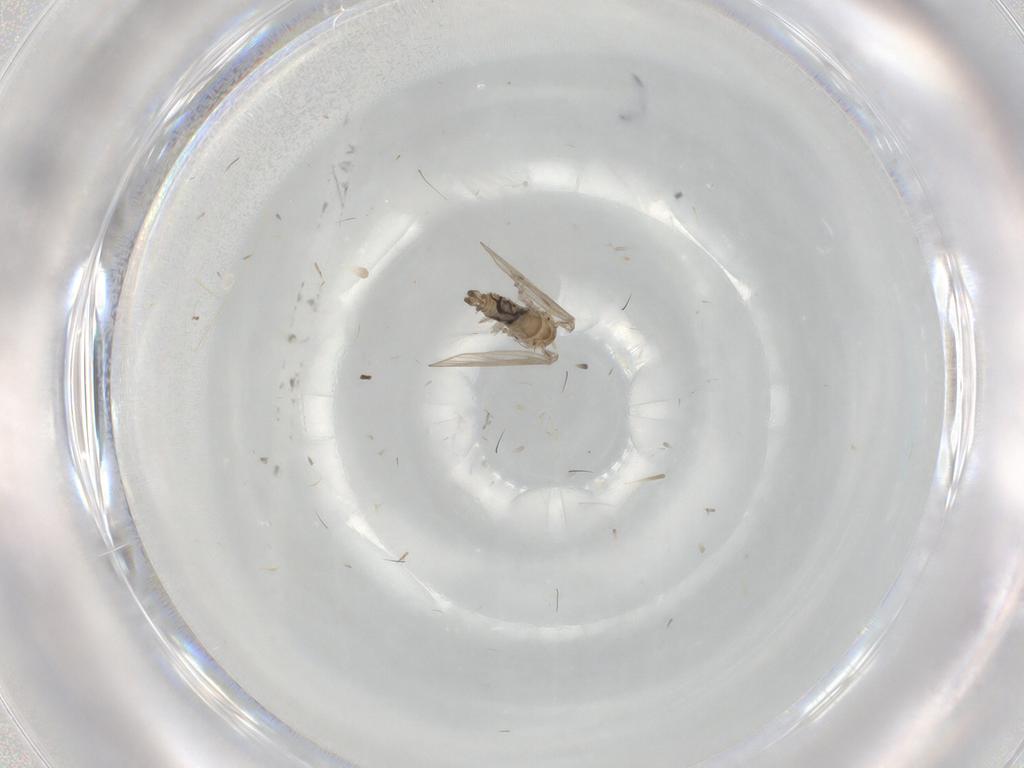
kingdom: Animalia
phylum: Arthropoda
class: Insecta
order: Diptera
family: Psychodidae
